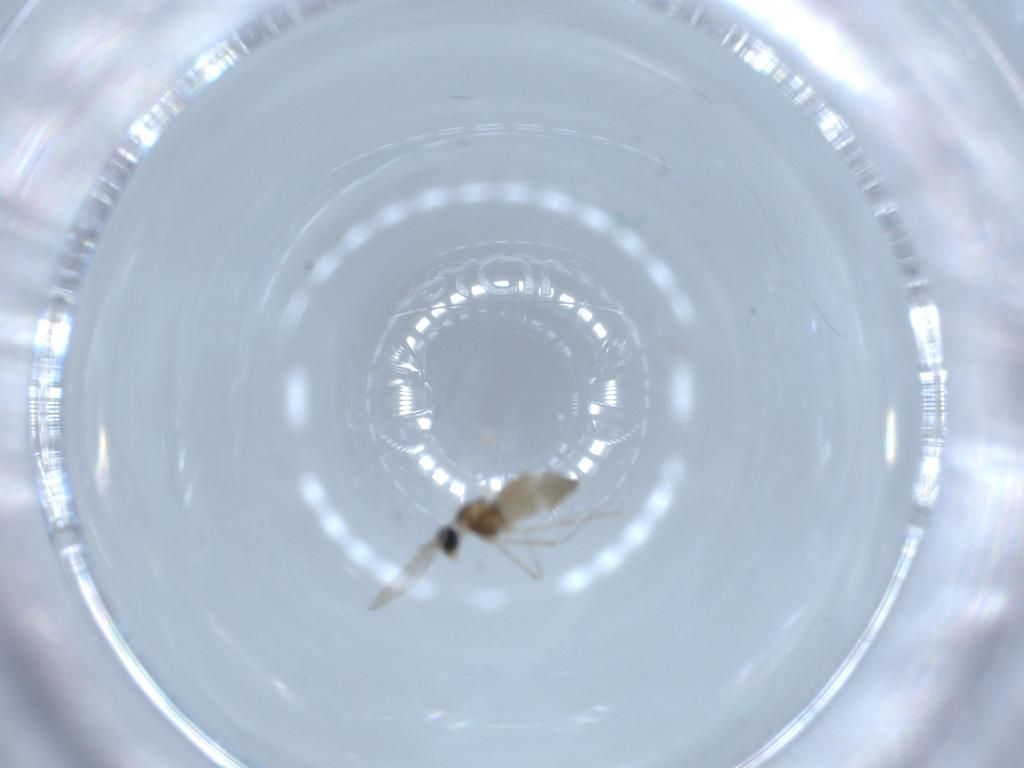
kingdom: Animalia
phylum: Arthropoda
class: Insecta
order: Diptera
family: Cecidomyiidae
